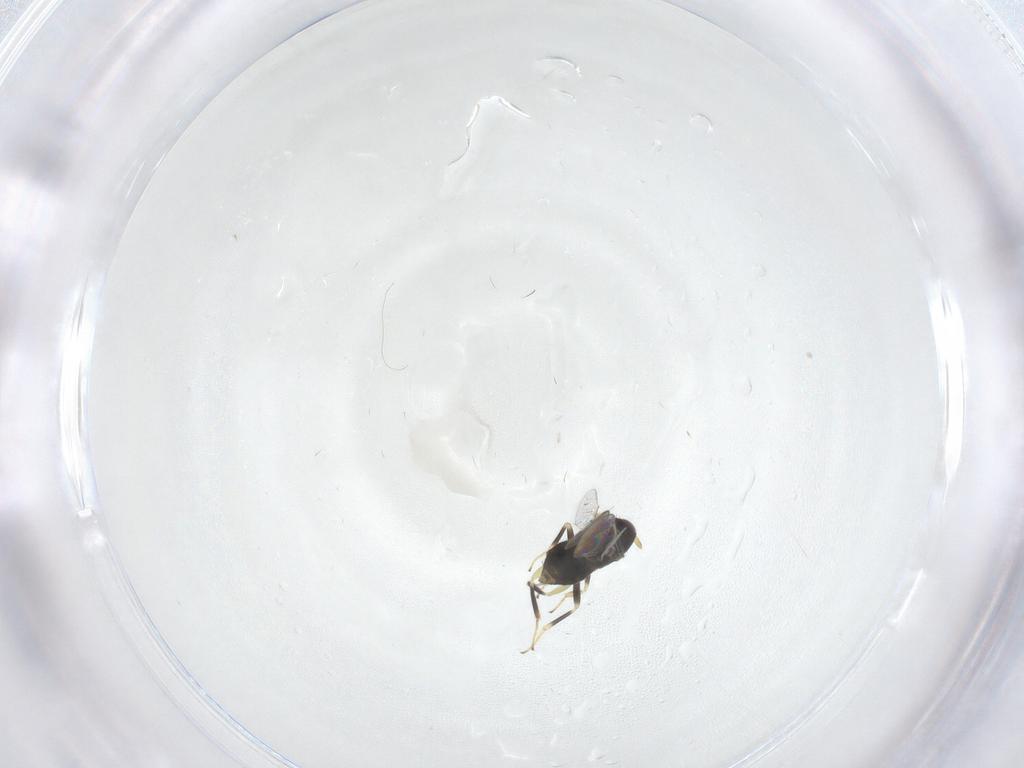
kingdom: Animalia
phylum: Arthropoda
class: Insecta
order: Hymenoptera
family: Aphelinidae
